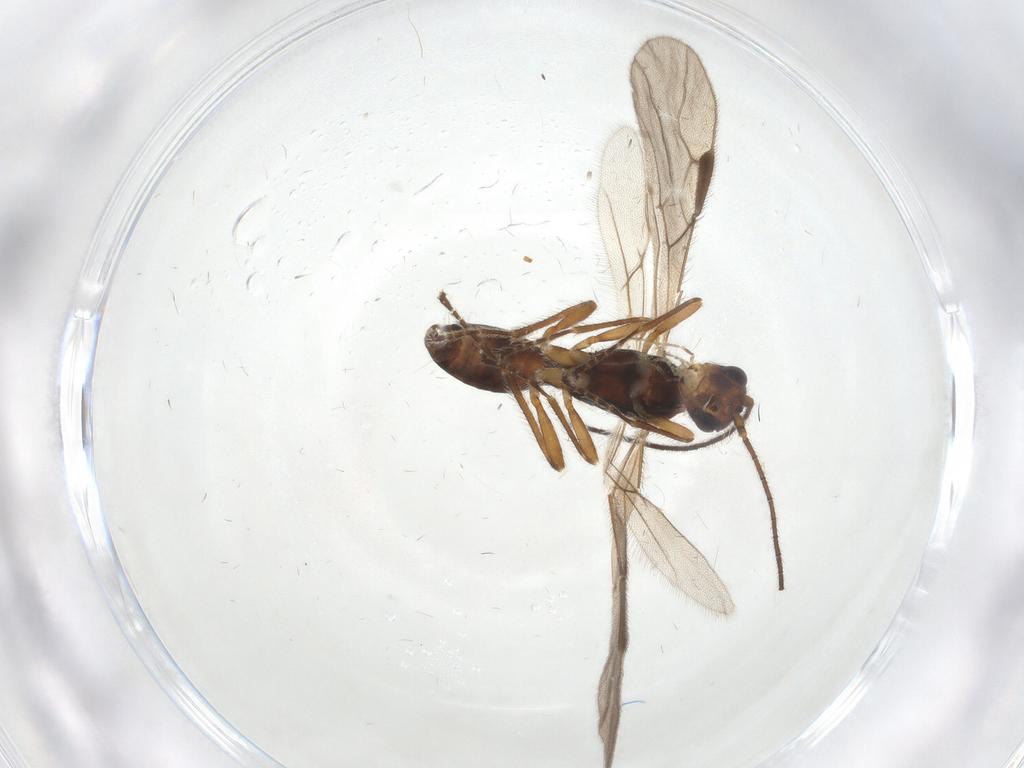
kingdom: Animalia
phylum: Arthropoda
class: Insecta
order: Hymenoptera
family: Braconidae
